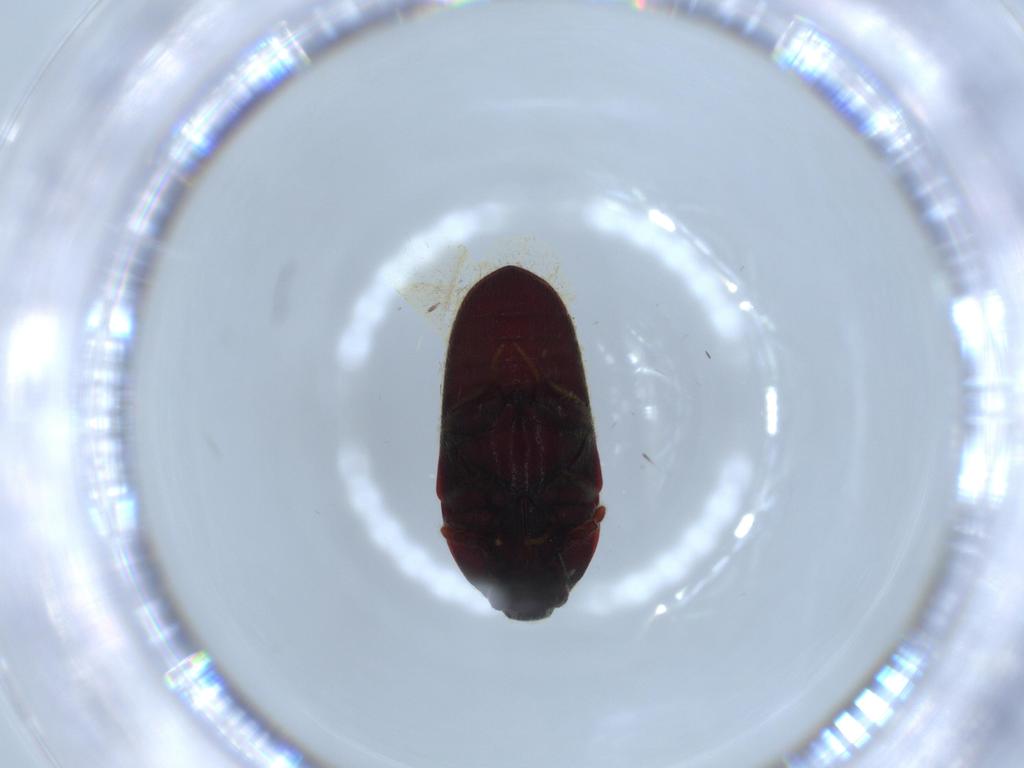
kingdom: Animalia
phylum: Arthropoda
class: Insecta
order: Coleoptera
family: Throscidae
